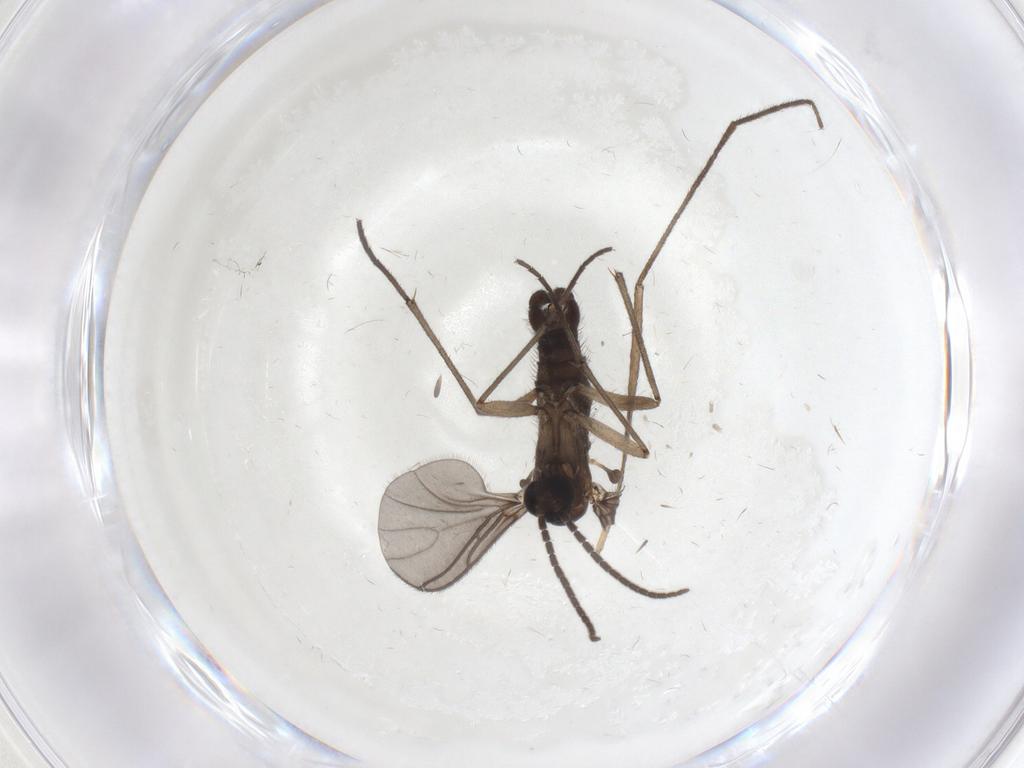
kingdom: Animalia
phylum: Arthropoda
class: Insecta
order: Diptera
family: Sciaridae
